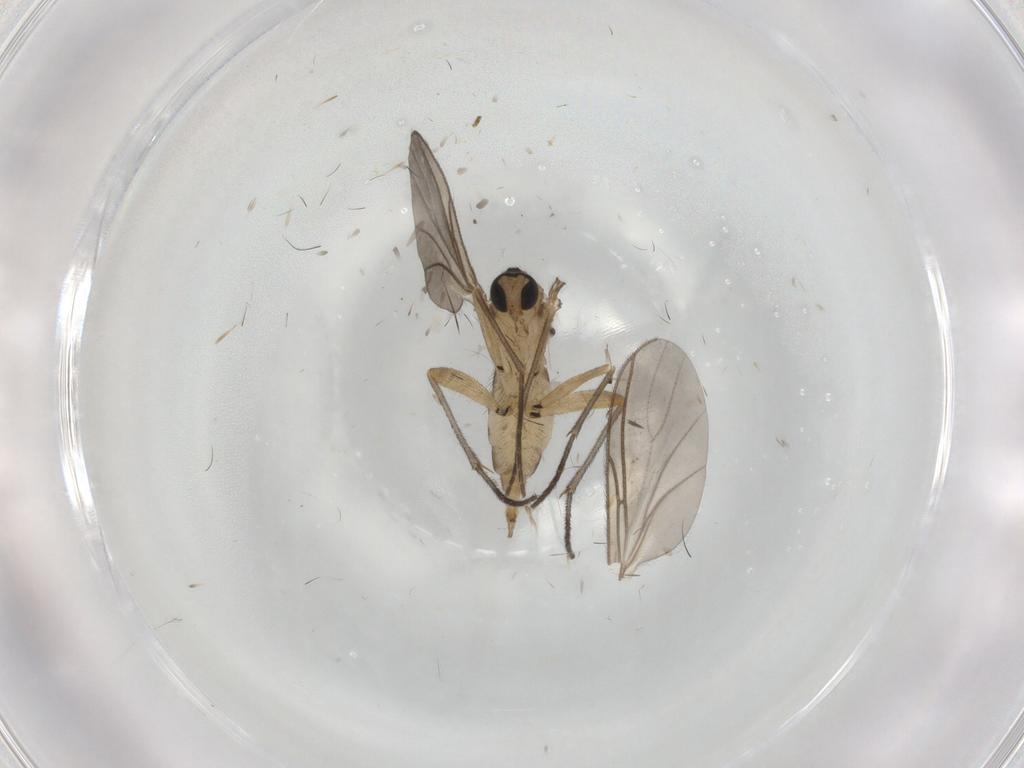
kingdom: Animalia
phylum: Arthropoda
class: Insecta
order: Diptera
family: Sciaridae
